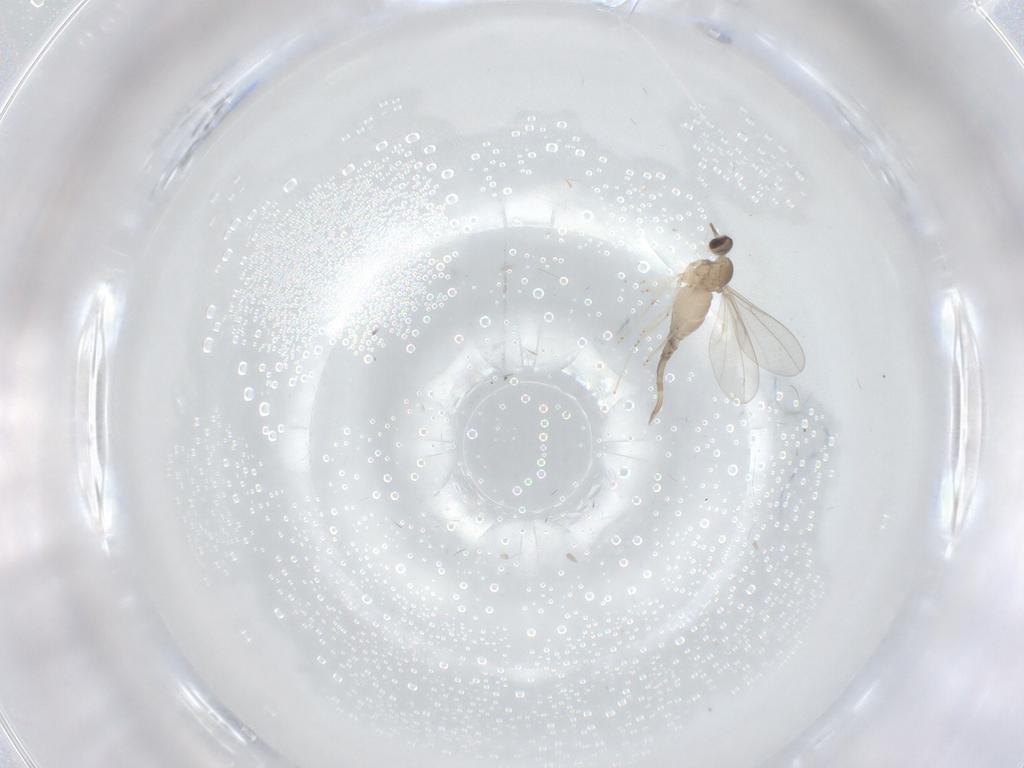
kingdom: Animalia
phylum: Arthropoda
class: Insecta
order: Diptera
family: Cecidomyiidae
